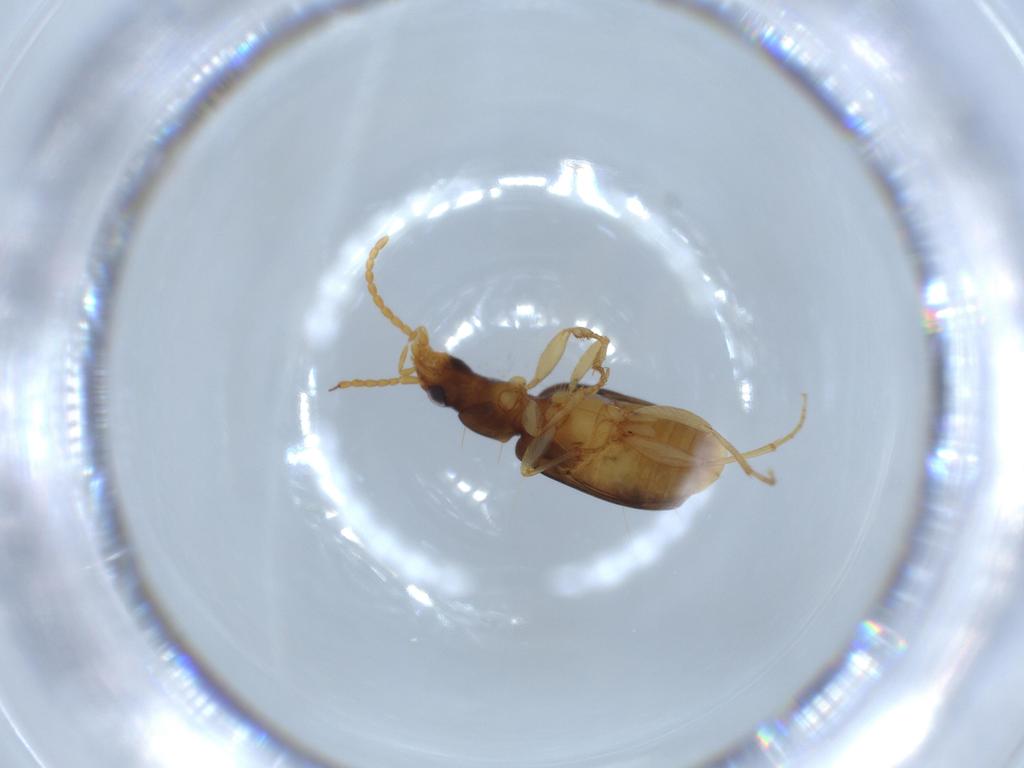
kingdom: Animalia
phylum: Arthropoda
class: Insecta
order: Coleoptera
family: Carabidae
